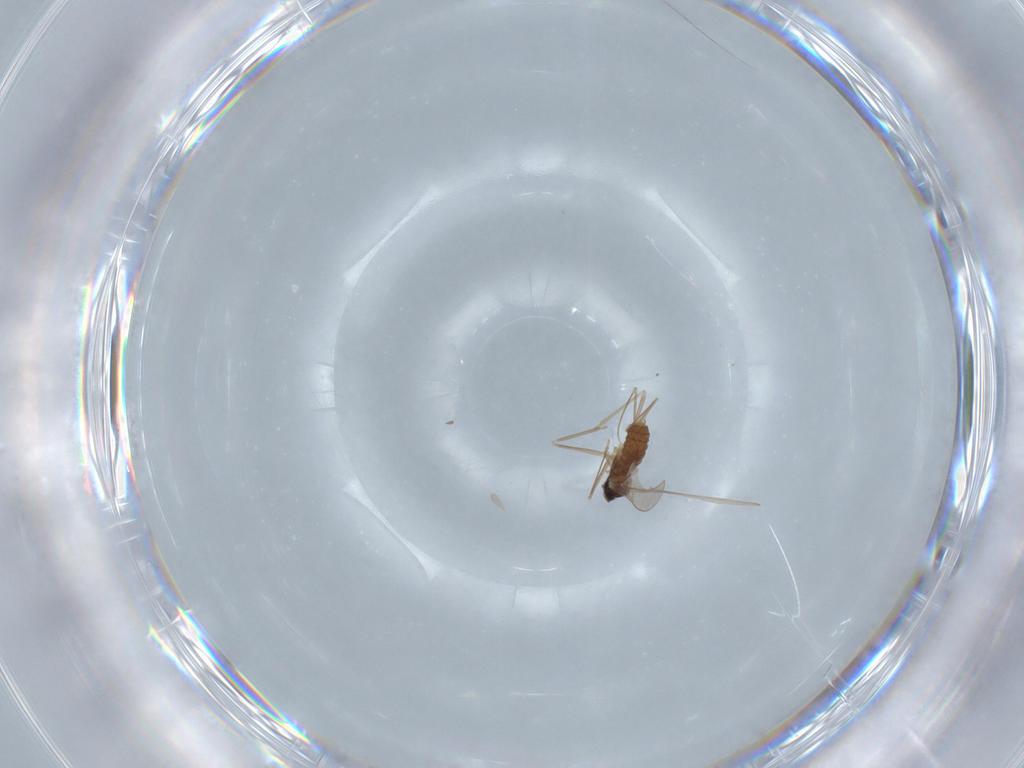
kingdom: Animalia
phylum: Arthropoda
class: Insecta
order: Diptera
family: Cecidomyiidae
